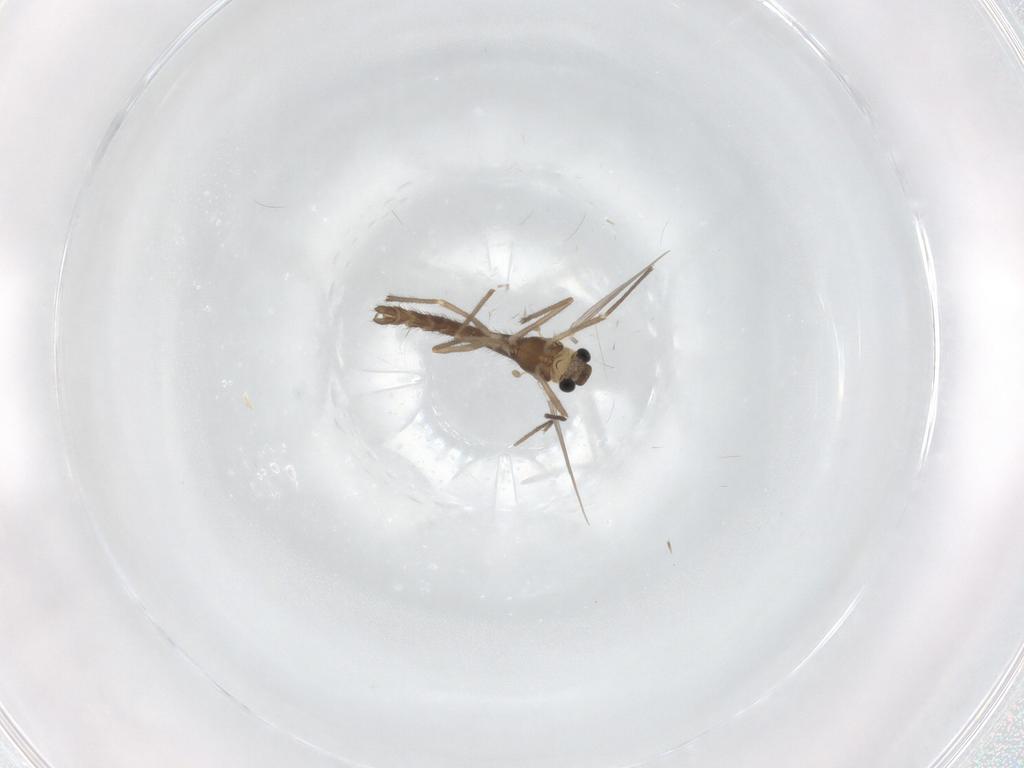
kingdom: Animalia
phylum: Arthropoda
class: Insecta
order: Diptera
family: Chironomidae
